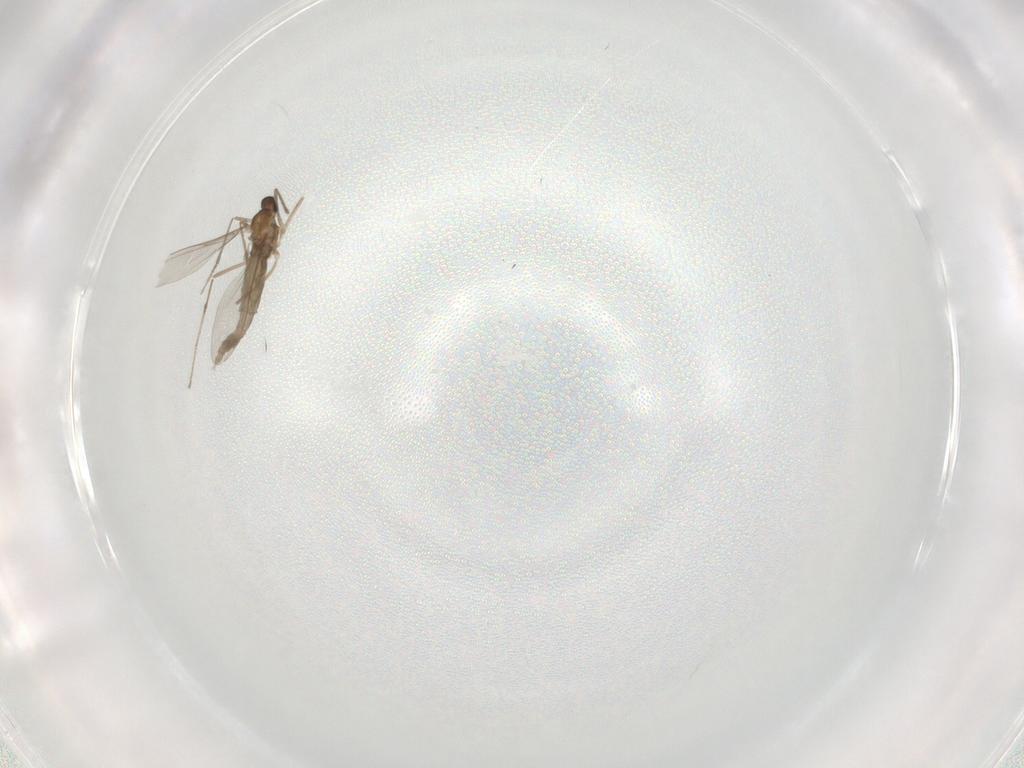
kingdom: Animalia
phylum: Arthropoda
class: Insecta
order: Diptera
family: Cecidomyiidae
